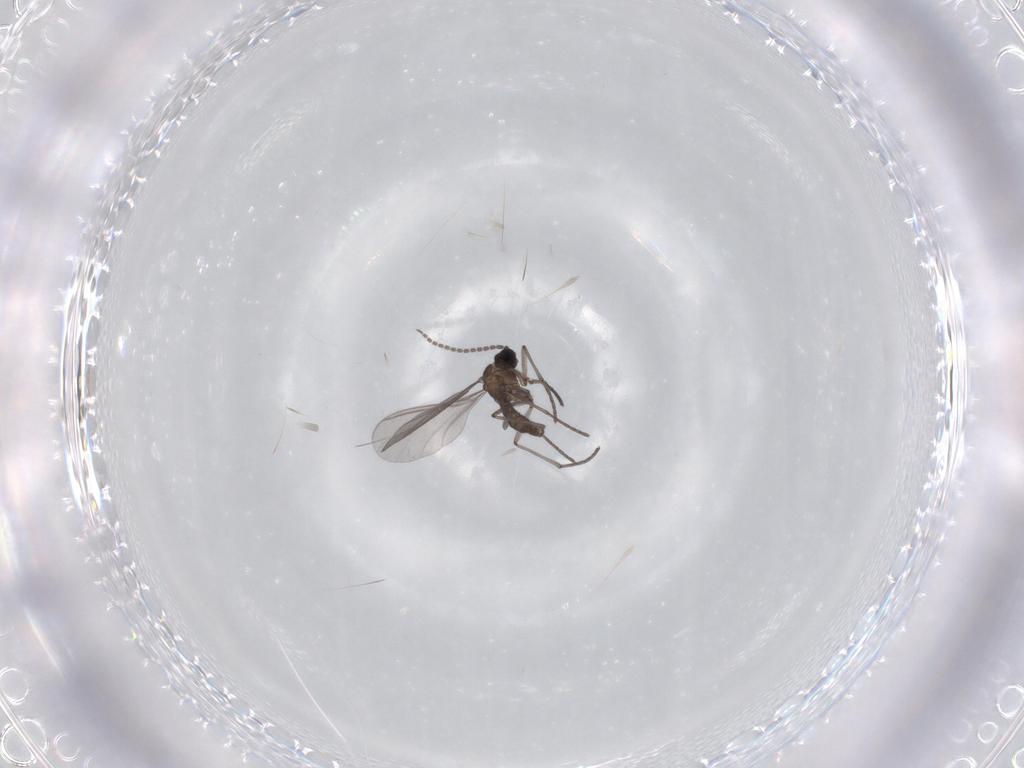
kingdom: Animalia
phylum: Arthropoda
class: Insecta
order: Diptera
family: Sciaridae
